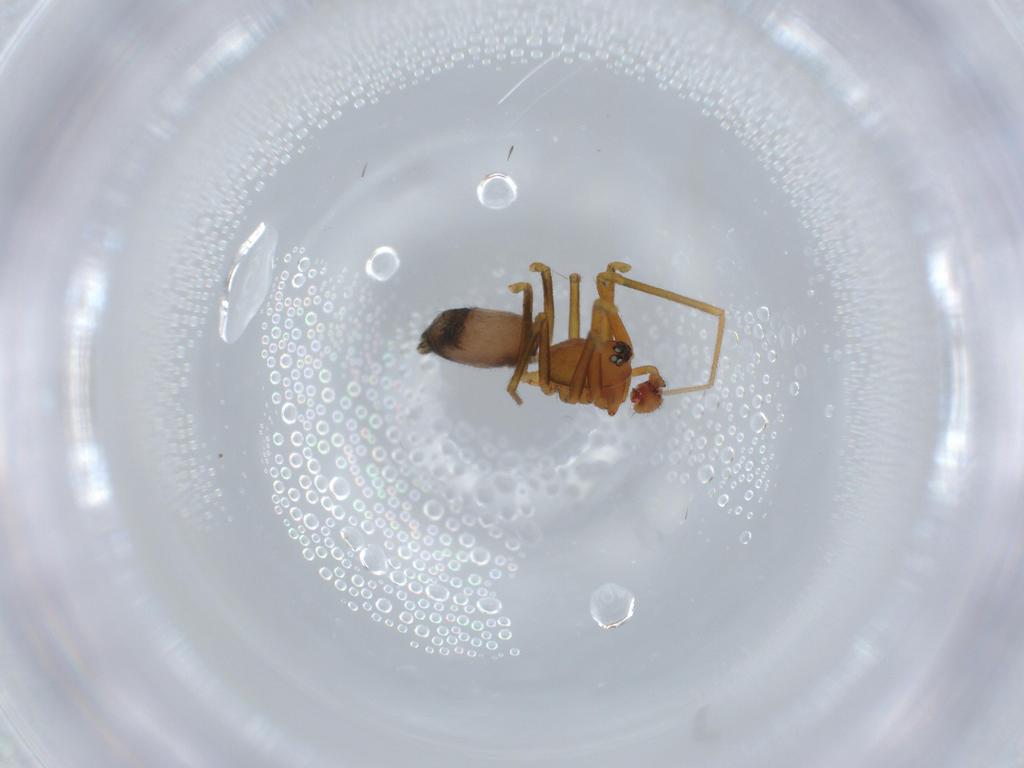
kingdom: Animalia
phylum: Arthropoda
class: Arachnida
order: Araneae
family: Linyphiidae
